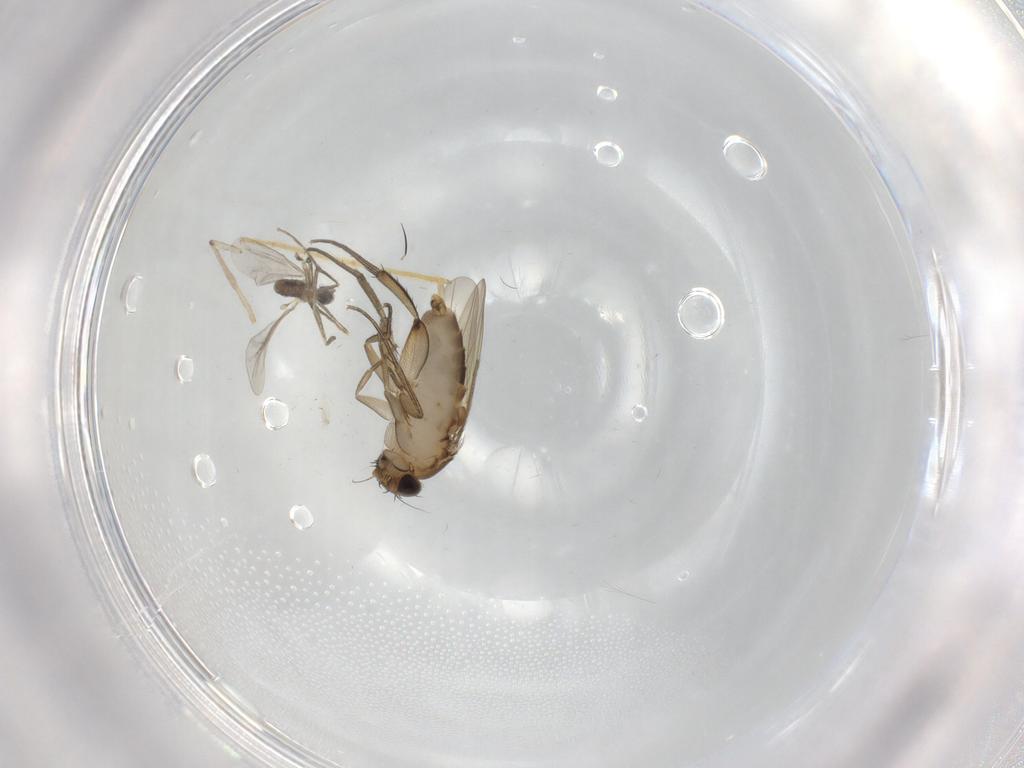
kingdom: Animalia
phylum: Arthropoda
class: Insecta
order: Diptera
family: Cecidomyiidae
